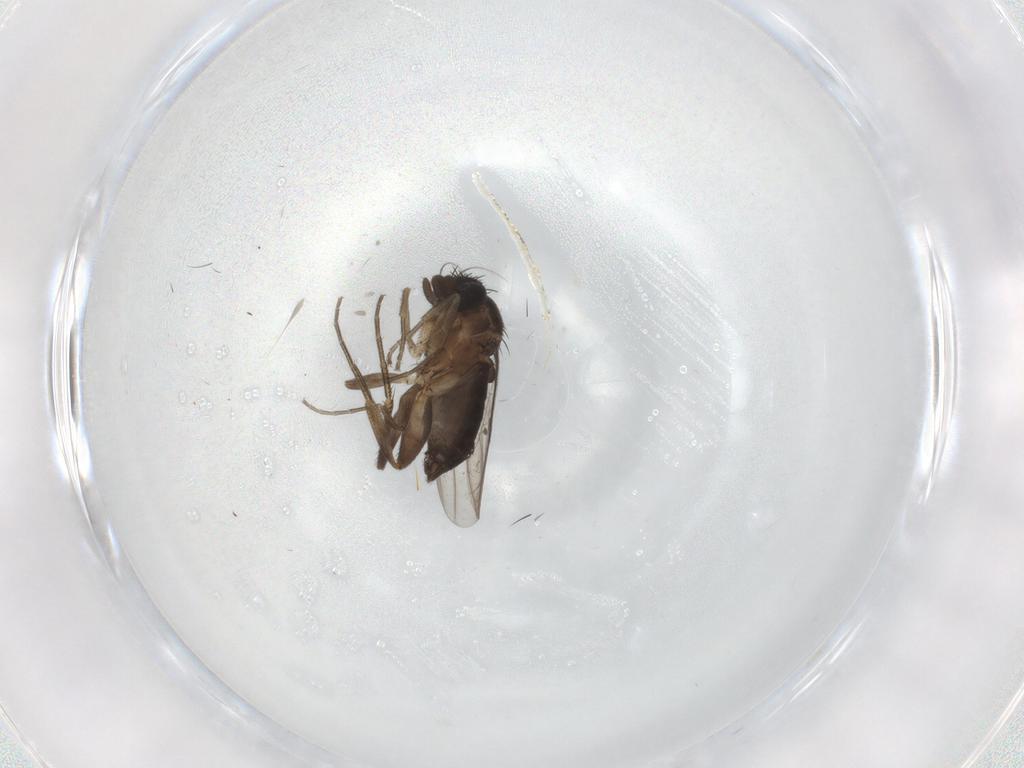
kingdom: Animalia
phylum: Arthropoda
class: Insecta
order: Diptera
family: Phoridae
